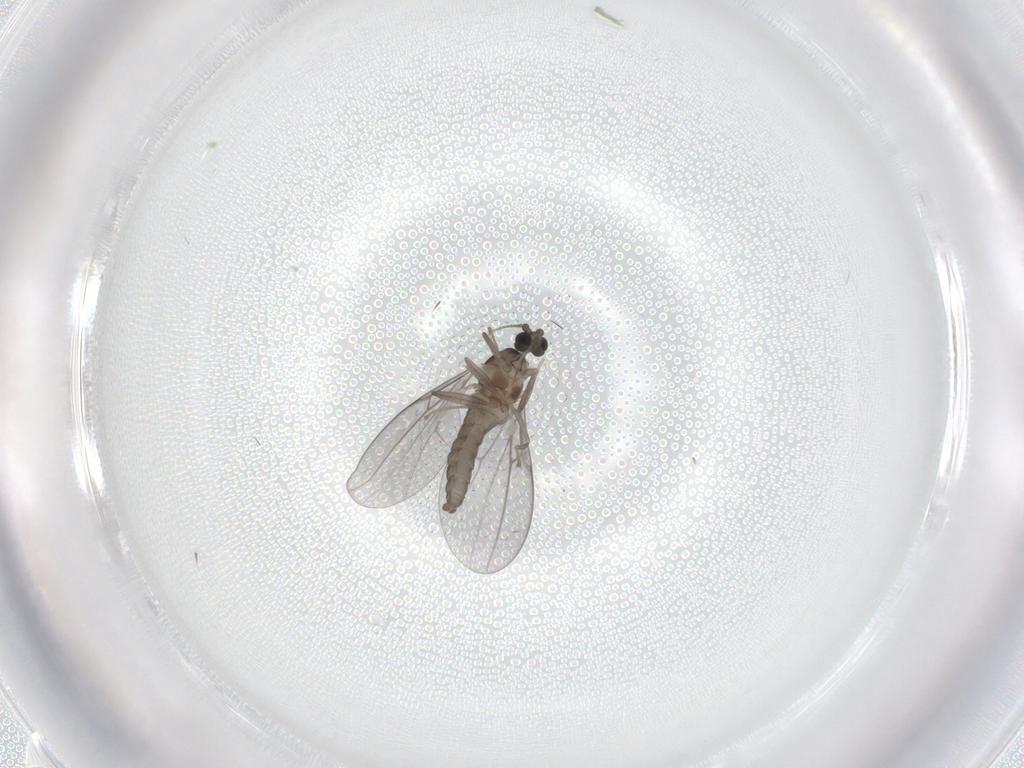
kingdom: Animalia
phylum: Arthropoda
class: Insecta
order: Diptera
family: Cecidomyiidae
